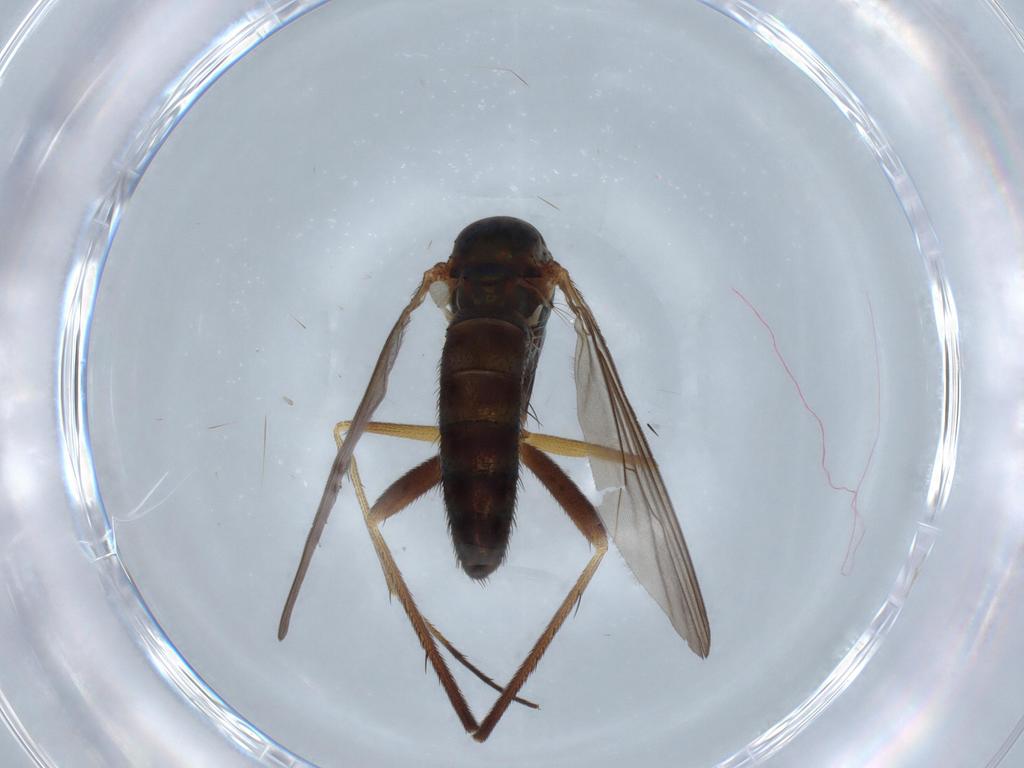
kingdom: Animalia
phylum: Arthropoda
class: Insecta
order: Diptera
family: Dolichopodidae
